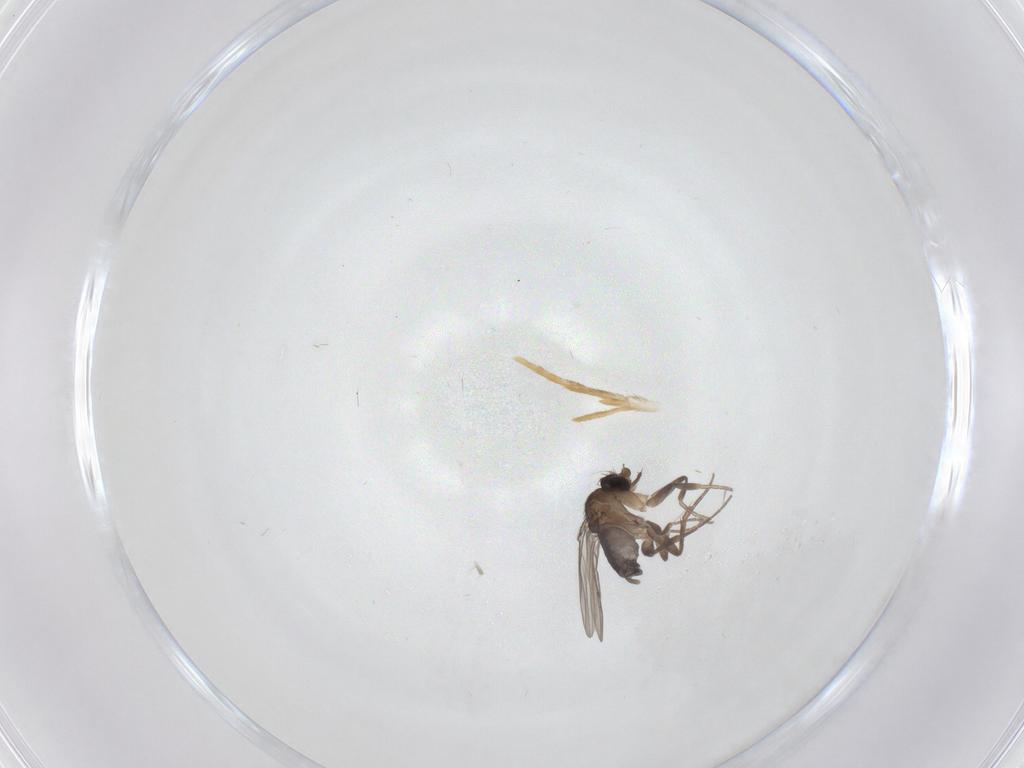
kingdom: Animalia
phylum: Arthropoda
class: Insecta
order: Diptera
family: Phoridae
